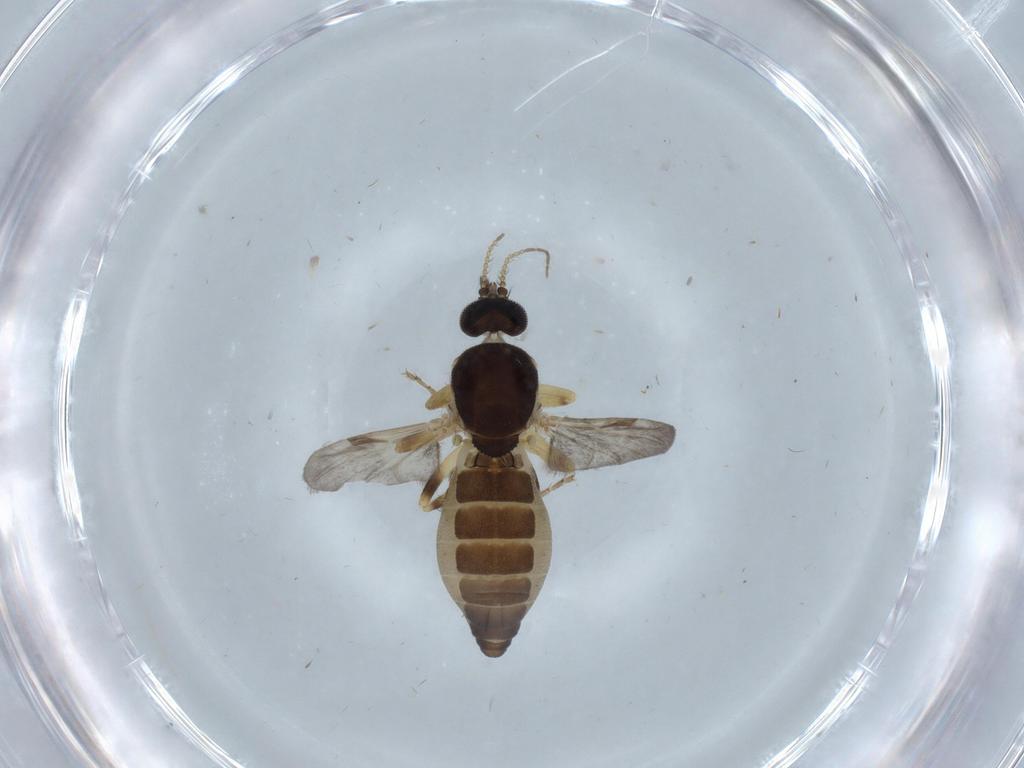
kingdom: Animalia
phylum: Arthropoda
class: Insecta
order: Diptera
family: Ceratopogonidae
